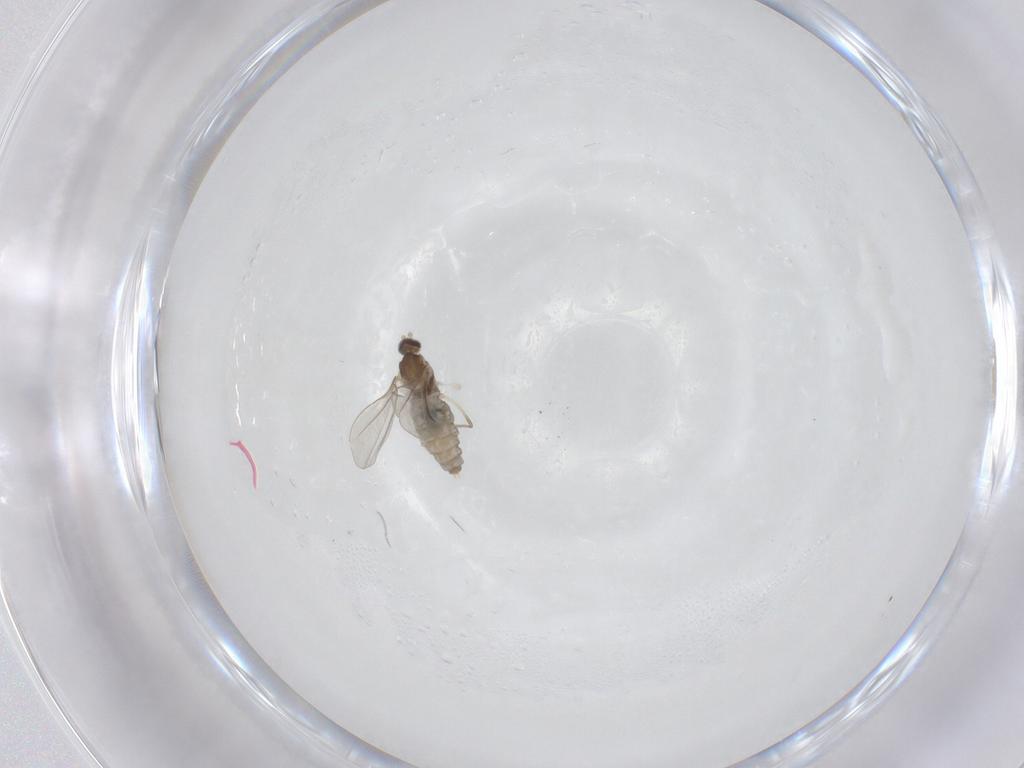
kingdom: Animalia
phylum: Arthropoda
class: Insecta
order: Diptera
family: Cecidomyiidae
